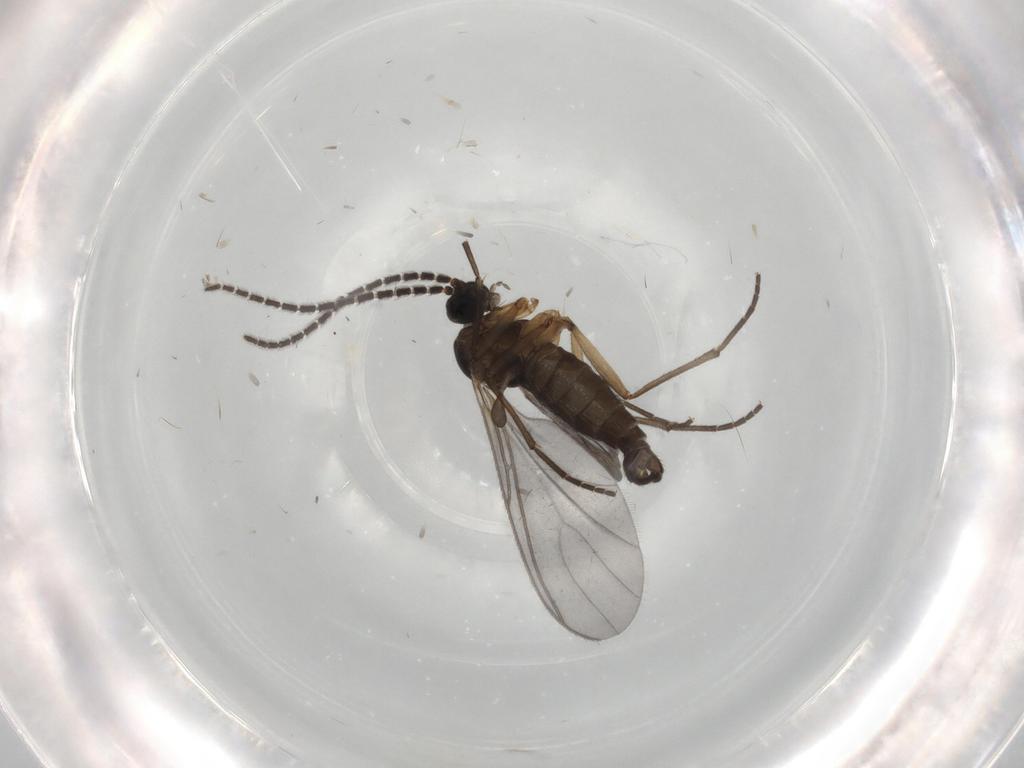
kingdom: Animalia
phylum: Arthropoda
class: Insecta
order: Diptera
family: Sciaridae
